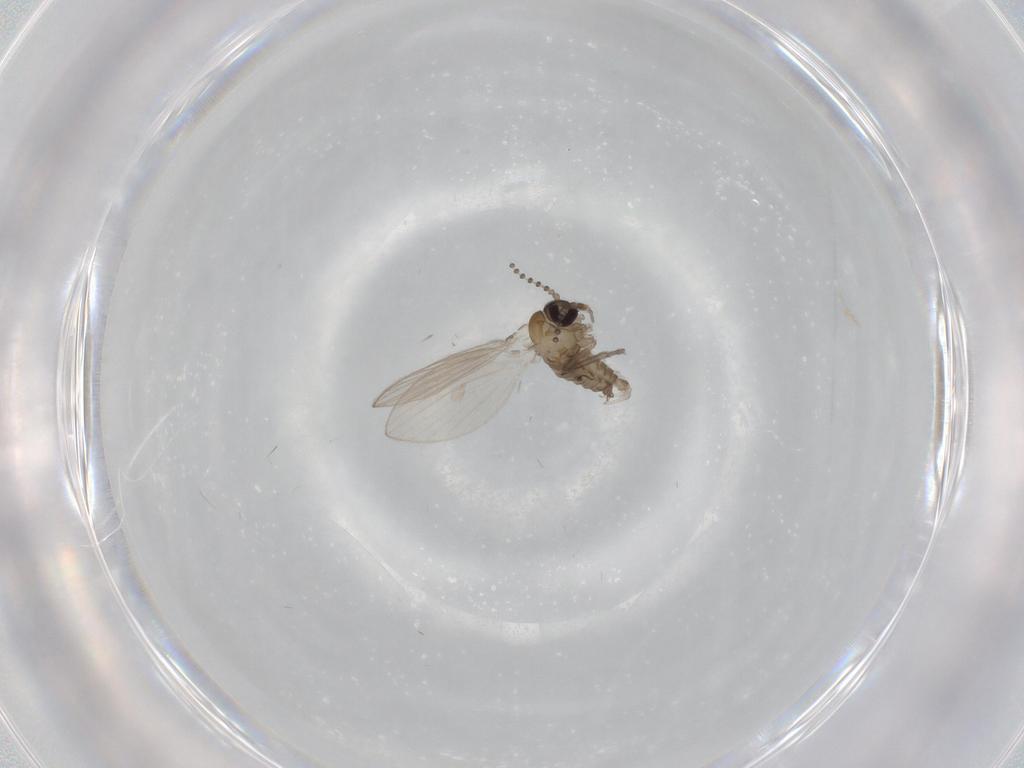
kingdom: Animalia
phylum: Arthropoda
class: Insecta
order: Diptera
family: Psychodidae
